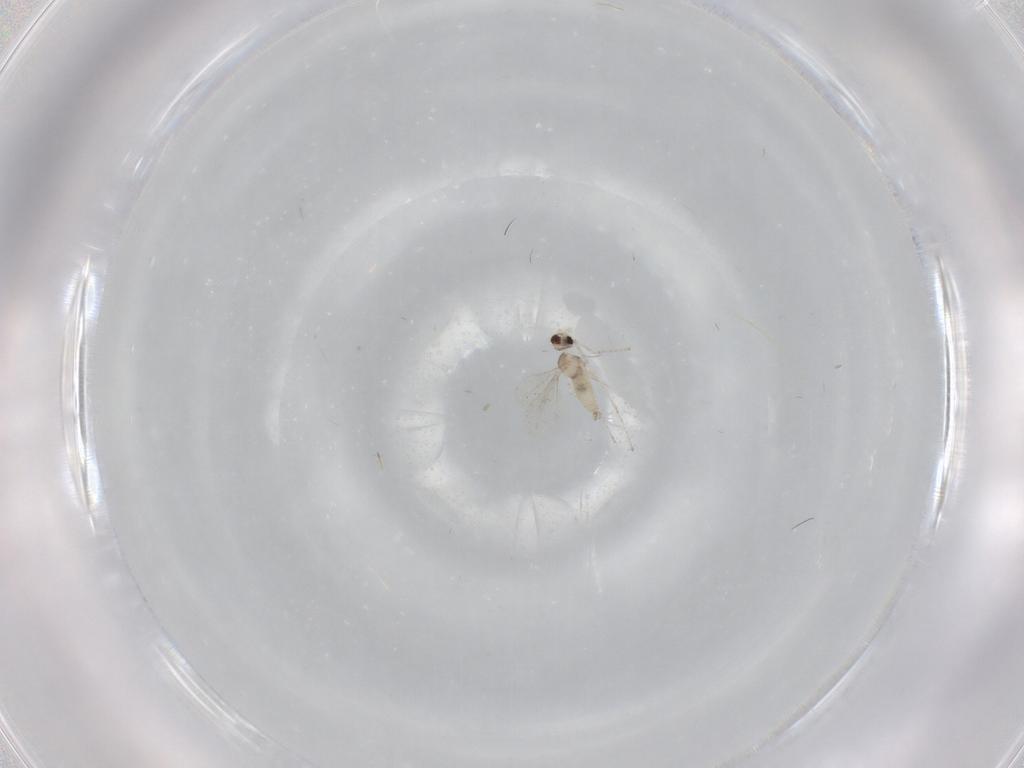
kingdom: Animalia
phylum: Arthropoda
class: Insecta
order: Diptera
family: Cecidomyiidae
